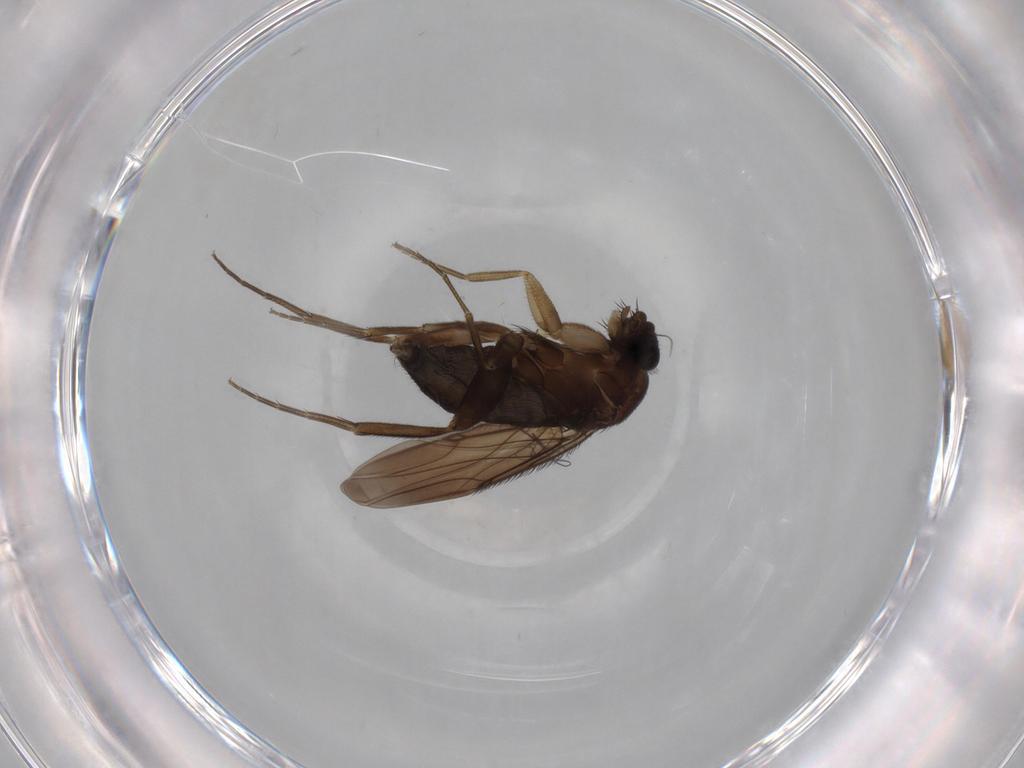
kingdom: Animalia
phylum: Arthropoda
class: Insecta
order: Diptera
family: Phoridae
